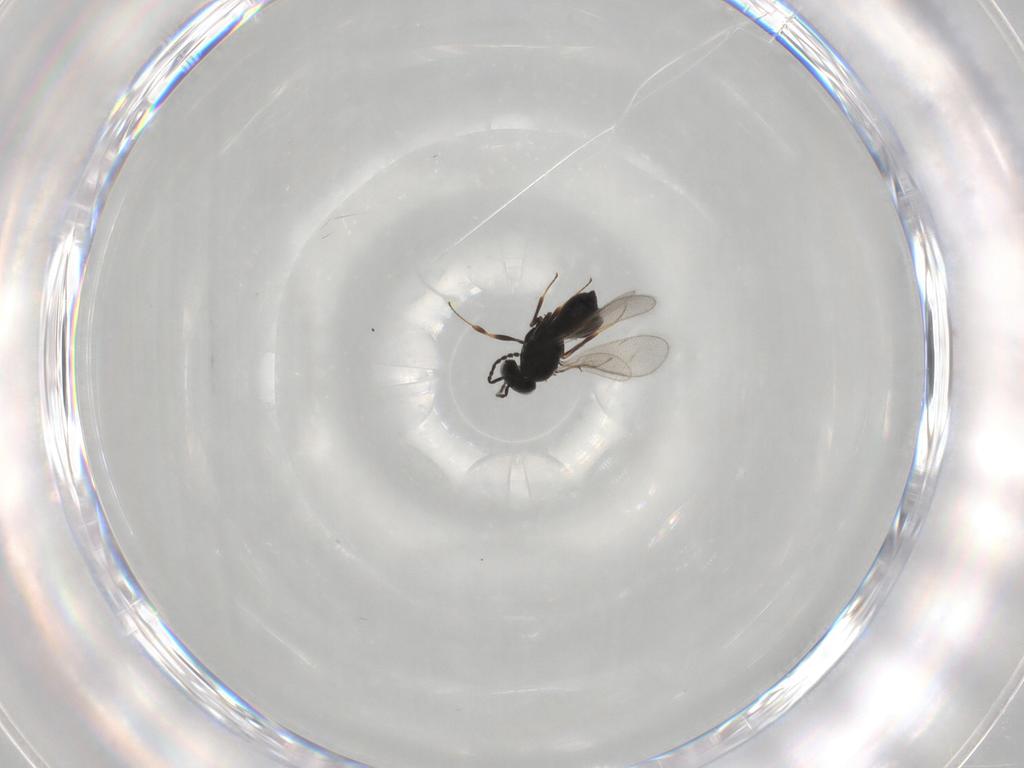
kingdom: Animalia
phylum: Arthropoda
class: Insecta
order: Hymenoptera
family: Scelionidae
